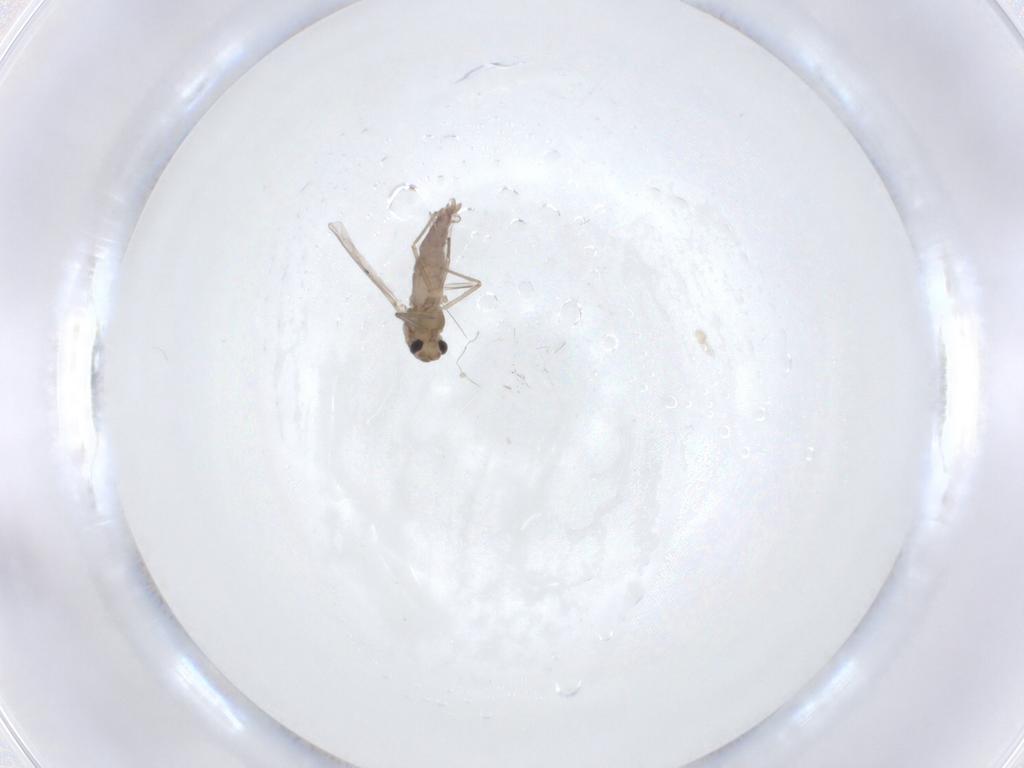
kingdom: Animalia
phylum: Arthropoda
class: Insecta
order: Diptera
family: Chironomidae
